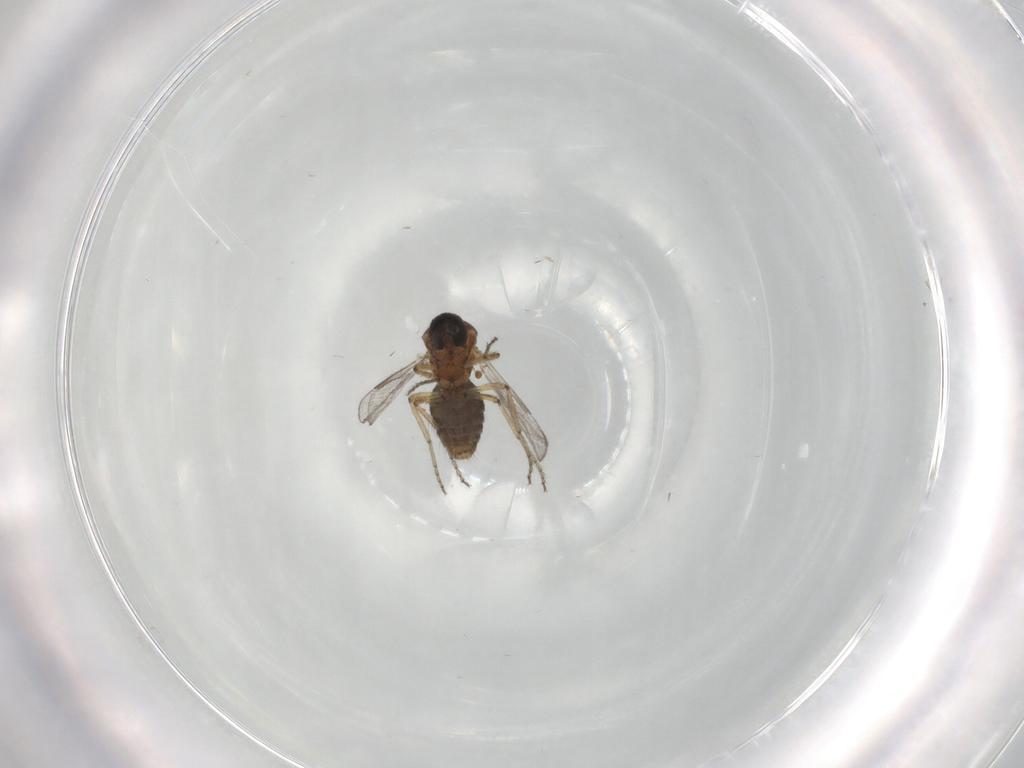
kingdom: Animalia
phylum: Arthropoda
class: Insecta
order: Diptera
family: Ceratopogonidae
